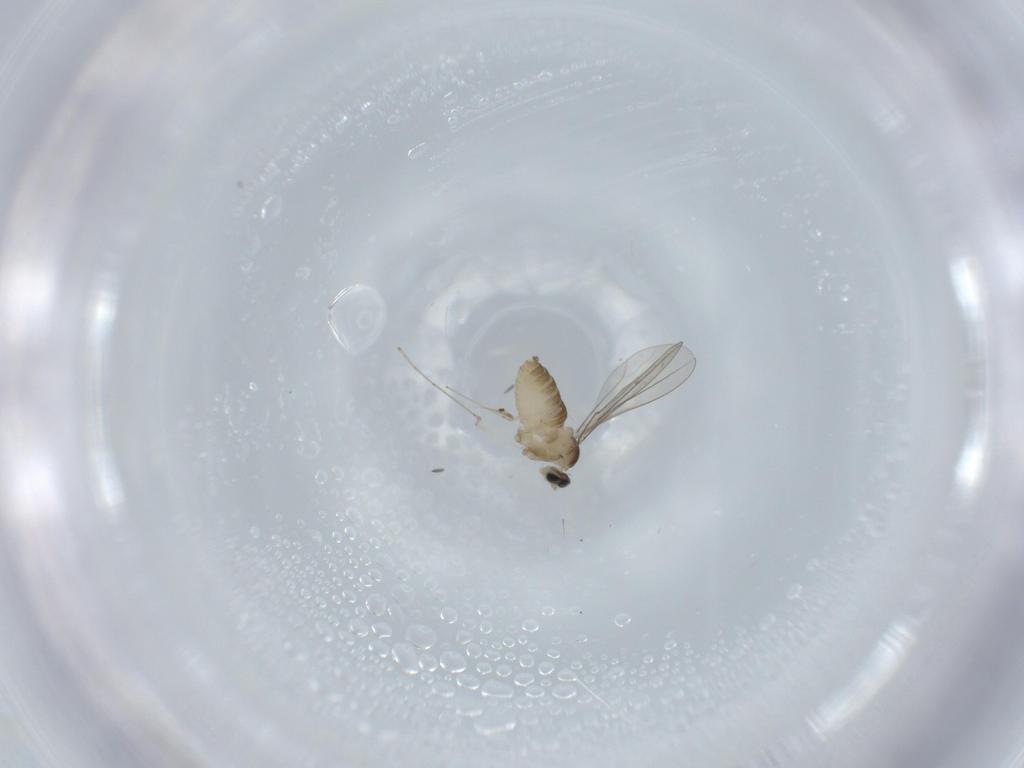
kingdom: Animalia
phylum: Arthropoda
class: Insecta
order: Diptera
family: Cecidomyiidae
